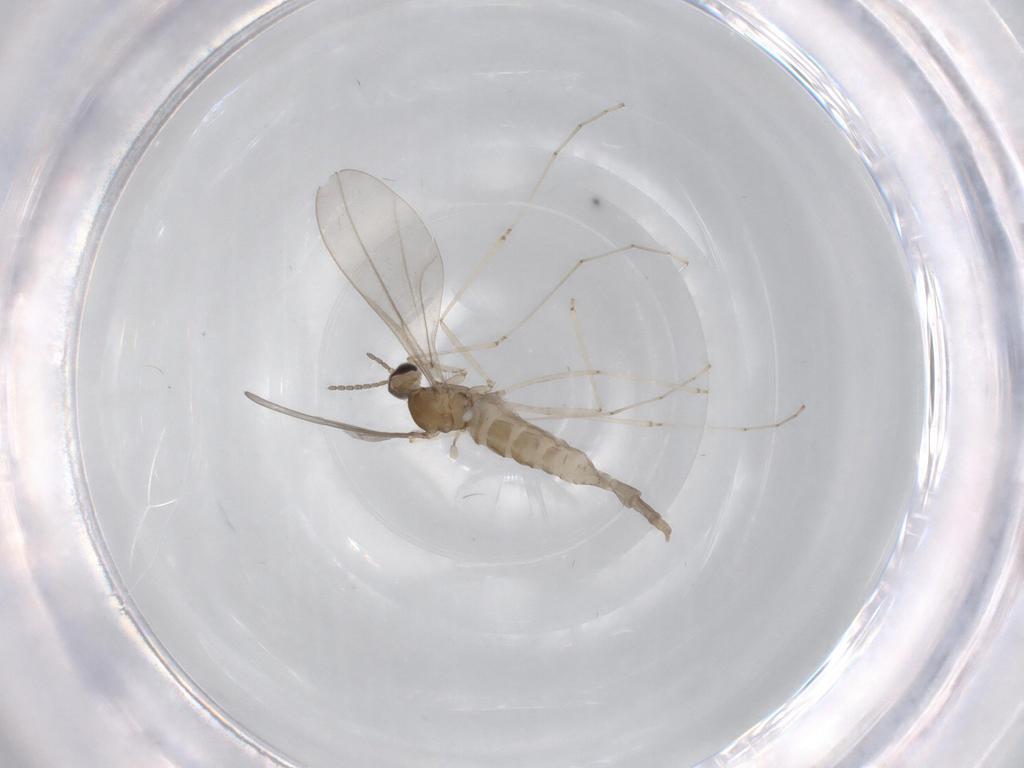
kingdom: Animalia
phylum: Arthropoda
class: Insecta
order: Diptera
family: Cecidomyiidae
